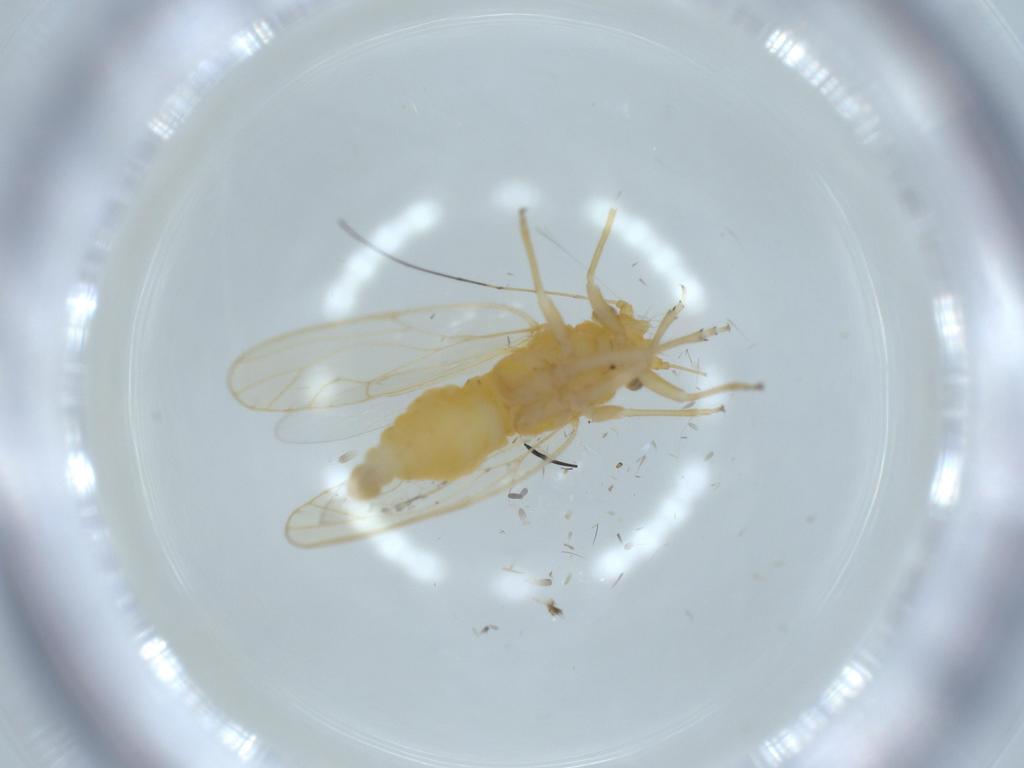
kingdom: Animalia
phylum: Arthropoda
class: Insecta
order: Hemiptera
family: Psyllidae
